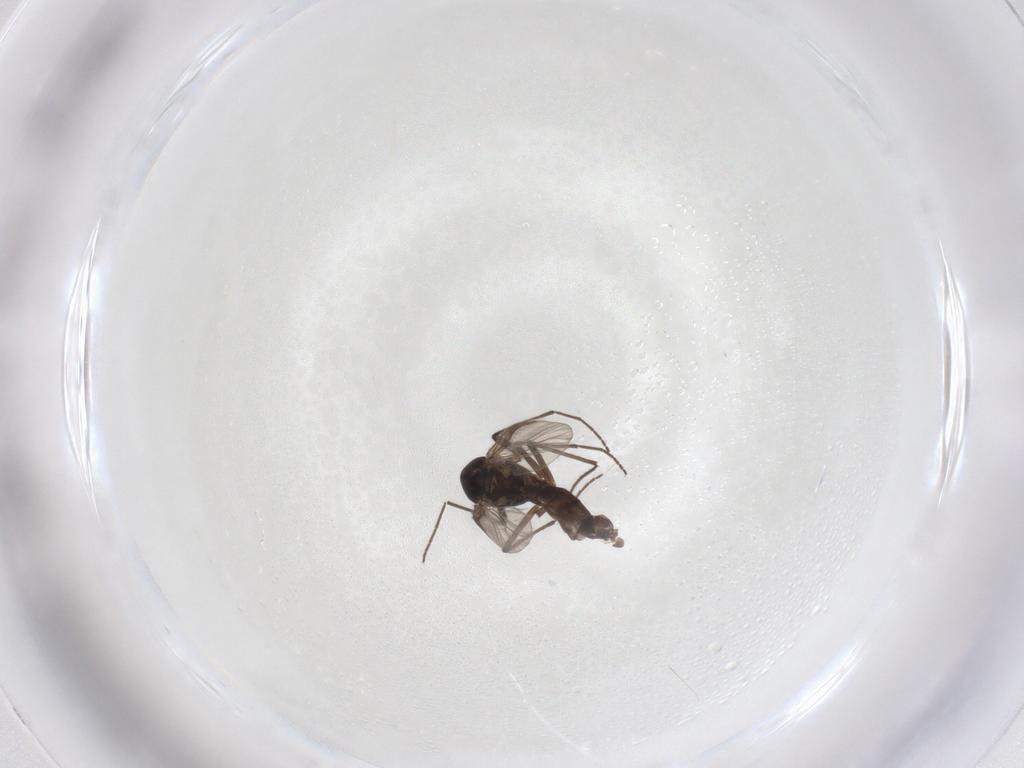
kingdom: Animalia
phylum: Arthropoda
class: Insecta
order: Diptera
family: Chironomidae
